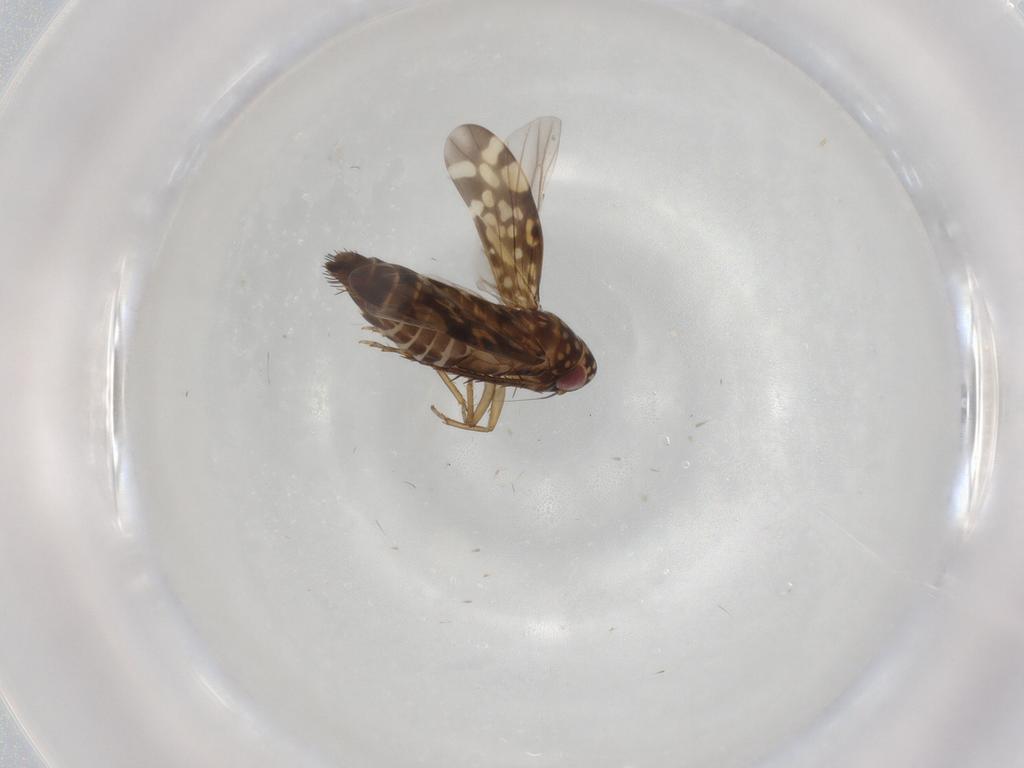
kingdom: Animalia
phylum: Arthropoda
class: Insecta
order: Hemiptera
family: Cicadellidae
